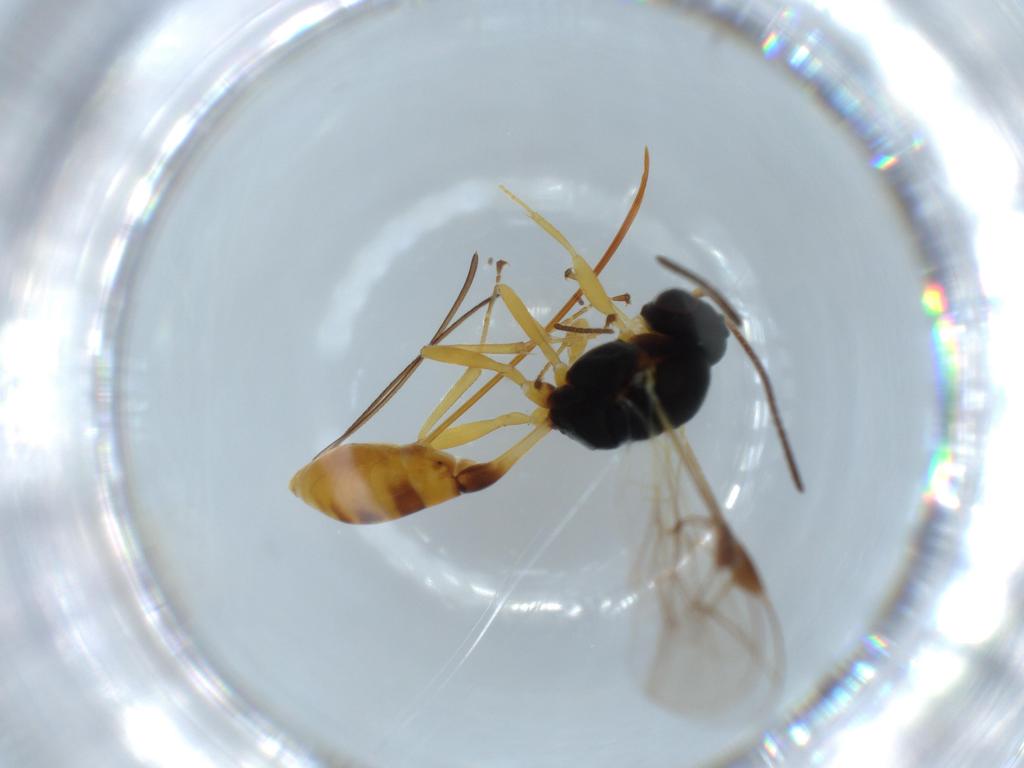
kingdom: Animalia
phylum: Arthropoda
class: Insecta
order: Hymenoptera
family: Ichneumonidae
